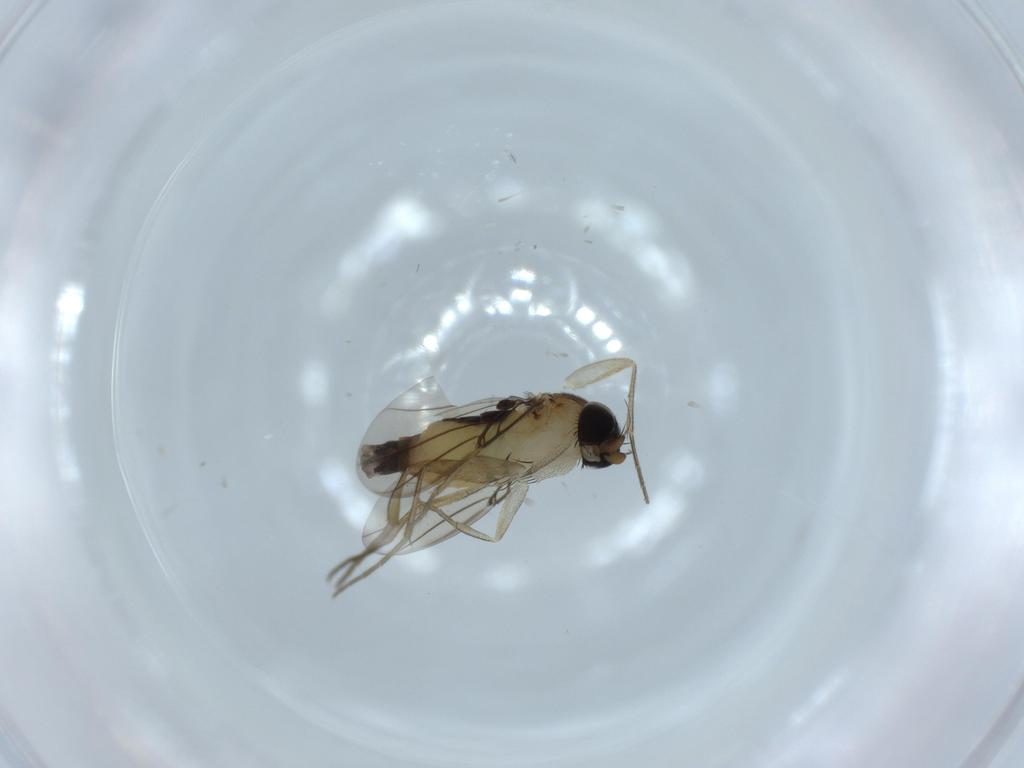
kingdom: Animalia
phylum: Arthropoda
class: Insecta
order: Diptera
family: Phoridae
